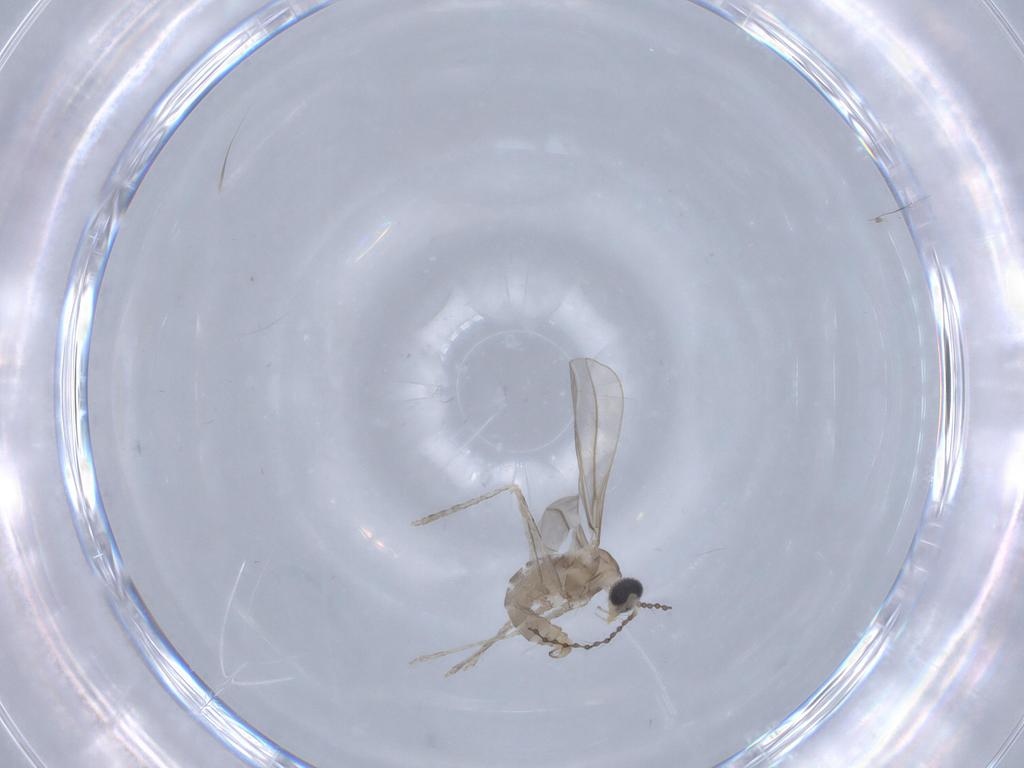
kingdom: Animalia
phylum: Arthropoda
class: Insecta
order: Diptera
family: Cecidomyiidae
